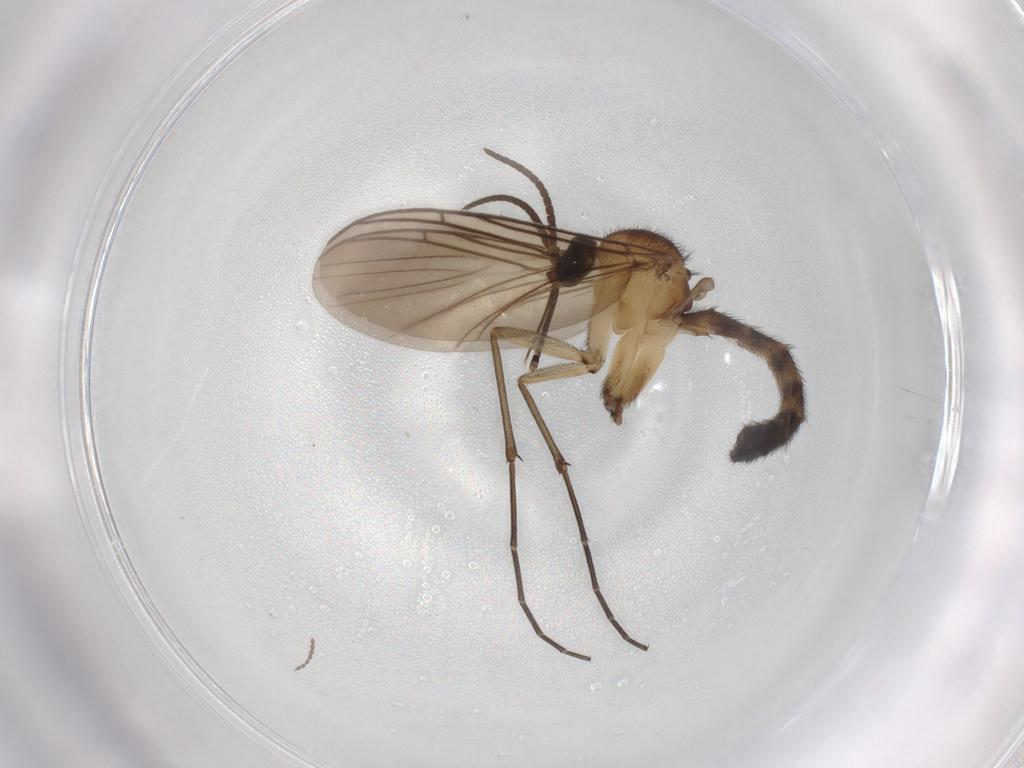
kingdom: Animalia
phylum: Arthropoda
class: Insecta
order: Diptera
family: Keroplatidae
